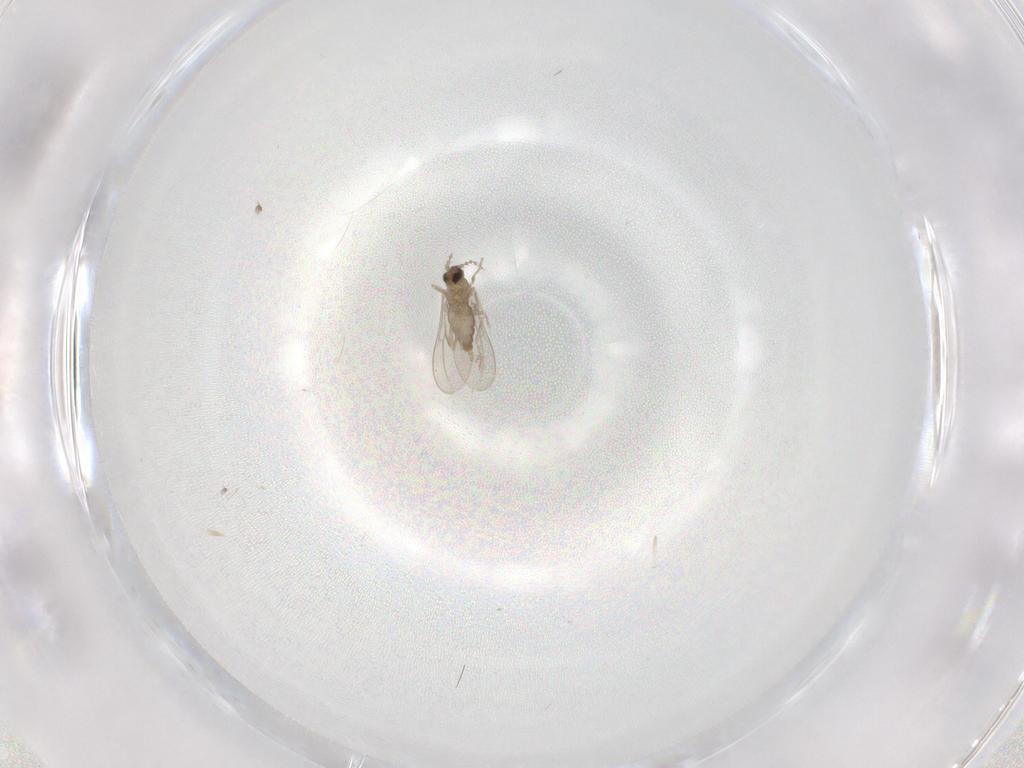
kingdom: Animalia
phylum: Arthropoda
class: Insecta
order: Diptera
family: Cecidomyiidae
